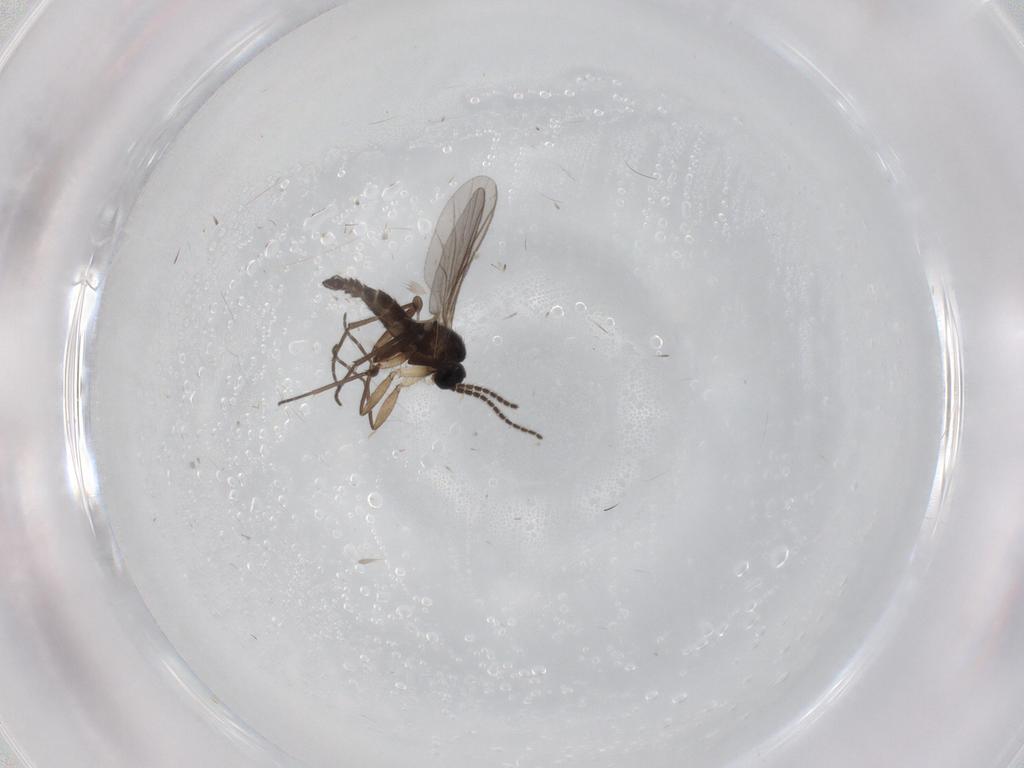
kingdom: Animalia
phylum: Arthropoda
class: Insecta
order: Diptera
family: Sciaridae
